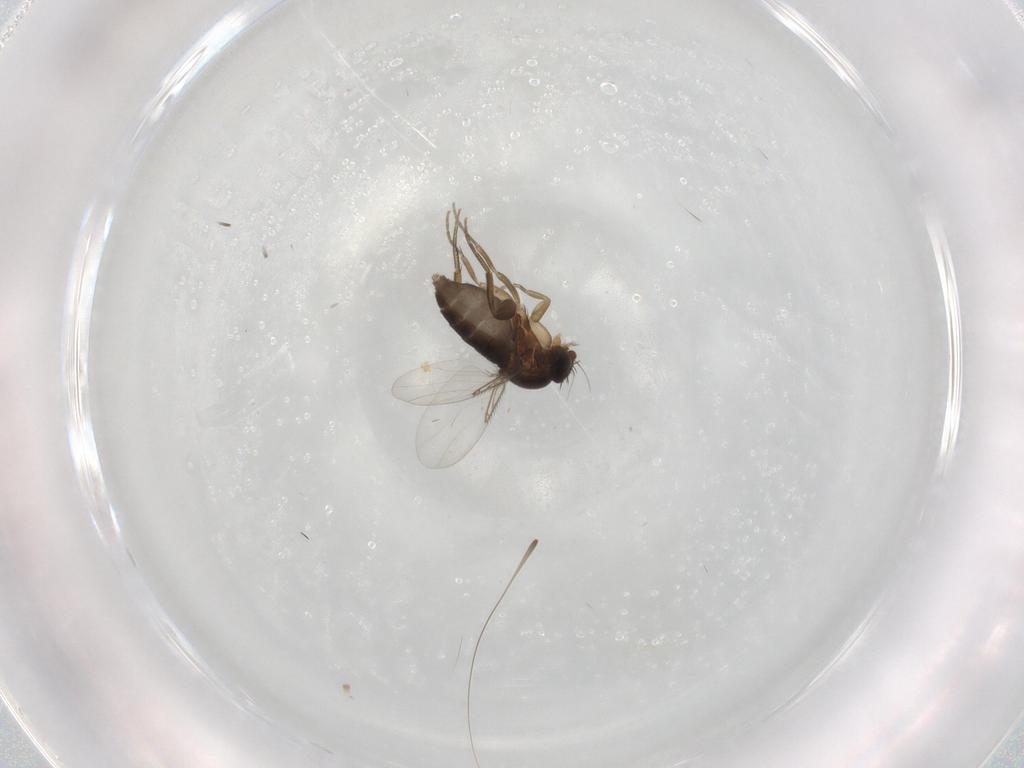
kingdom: Animalia
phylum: Arthropoda
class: Insecta
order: Diptera
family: Phoridae
